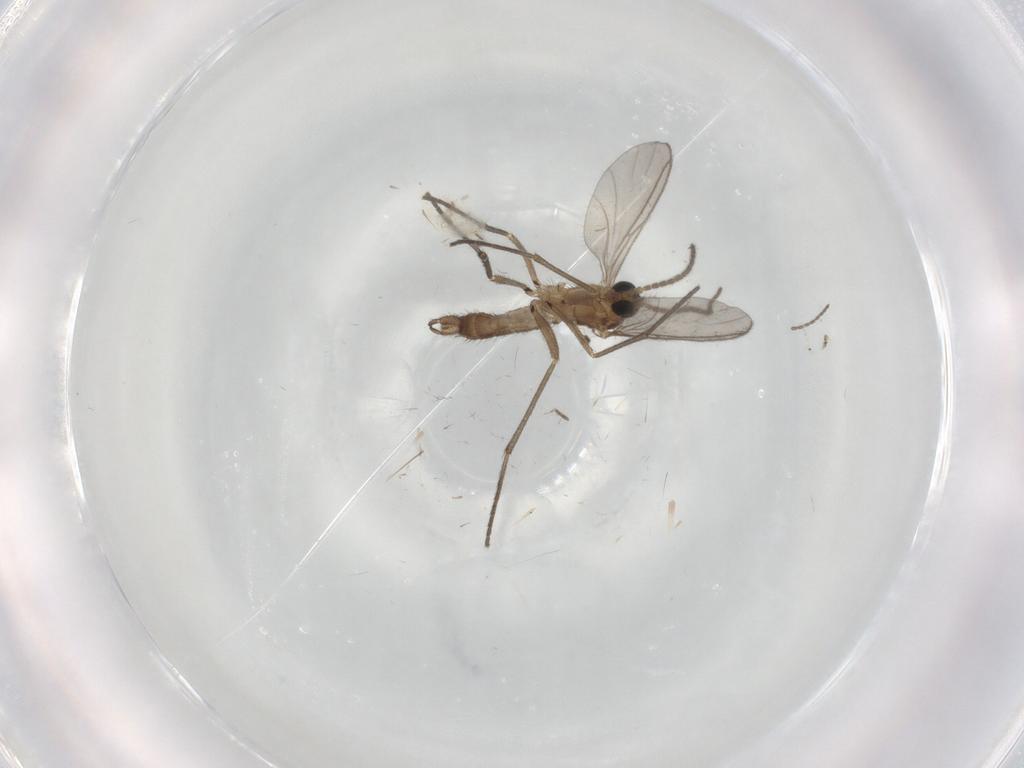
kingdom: Animalia
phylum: Arthropoda
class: Insecta
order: Diptera
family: Sciaridae
